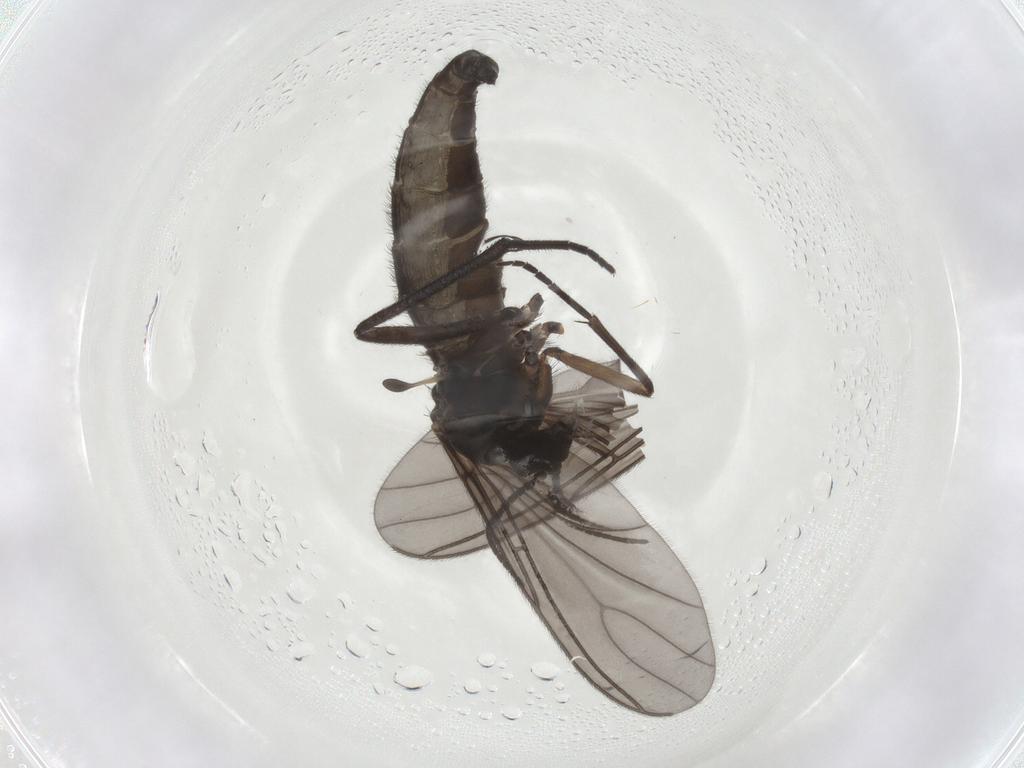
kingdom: Animalia
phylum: Arthropoda
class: Insecta
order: Diptera
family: Sciaridae
